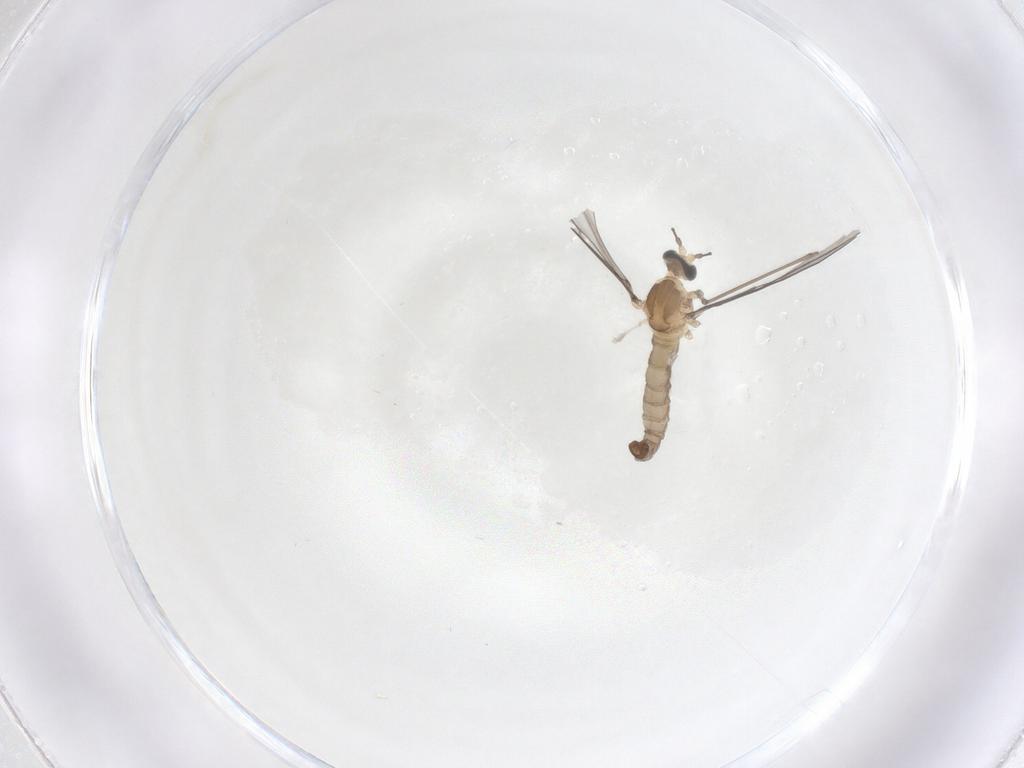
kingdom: Animalia
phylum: Arthropoda
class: Insecta
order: Diptera
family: Cecidomyiidae
